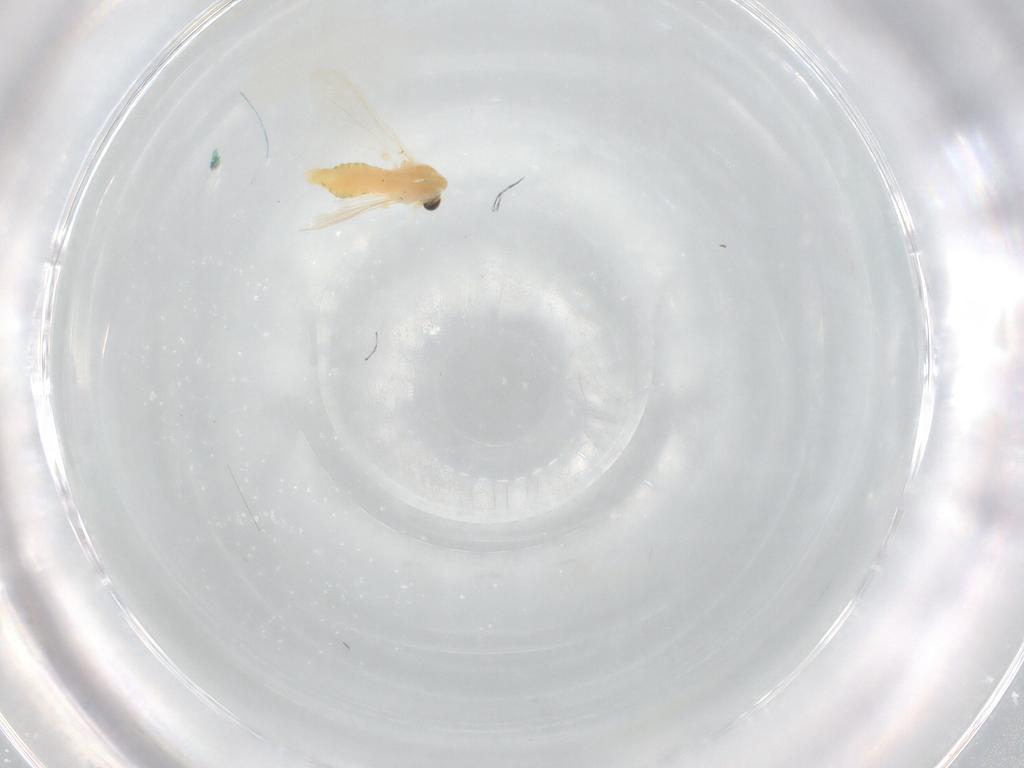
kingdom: Animalia
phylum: Arthropoda
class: Insecta
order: Diptera
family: Chironomidae
